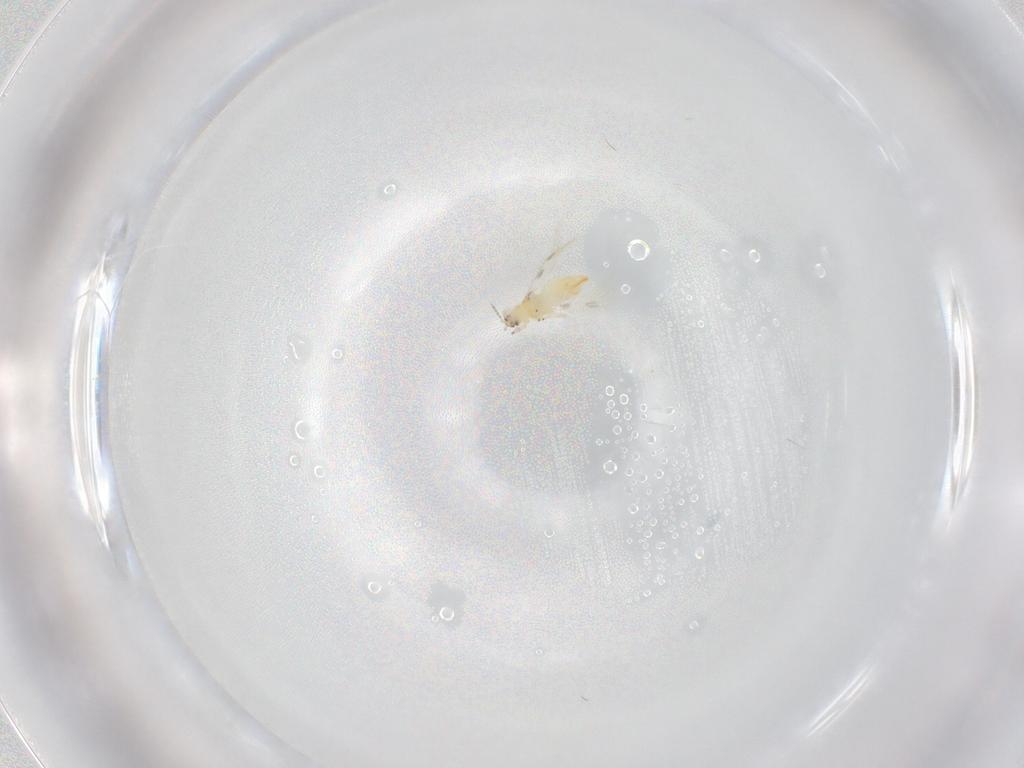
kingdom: Animalia
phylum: Arthropoda
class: Insecta
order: Thysanoptera
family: Thripidae
